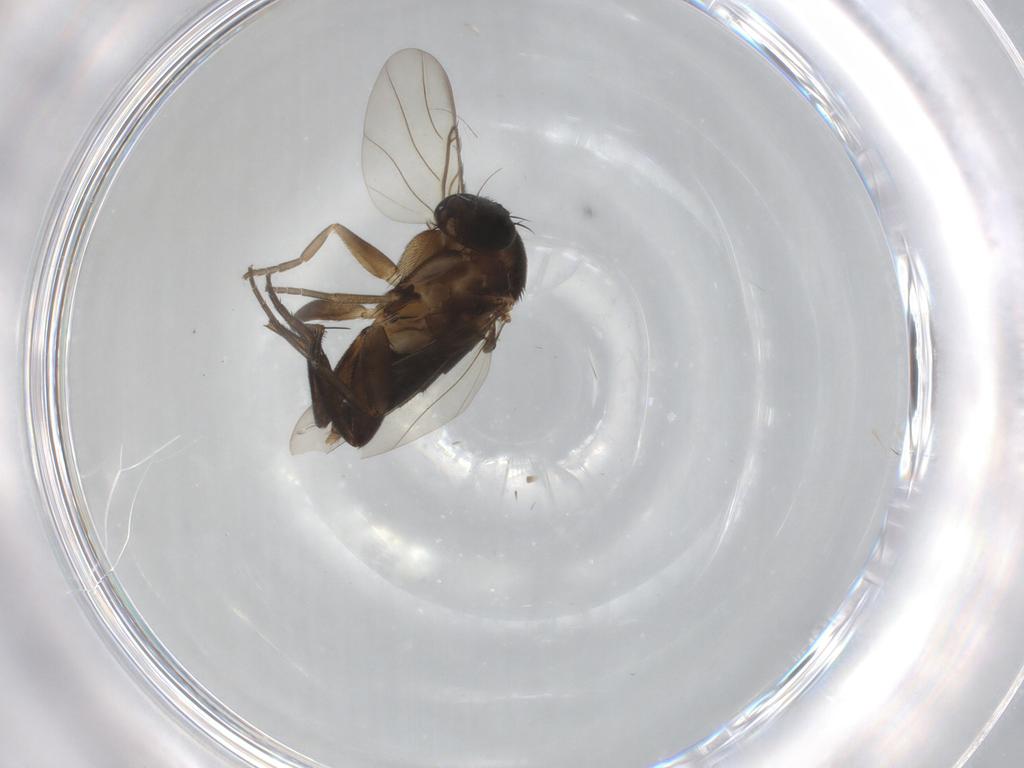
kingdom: Animalia
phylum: Arthropoda
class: Insecta
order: Diptera
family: Phoridae
